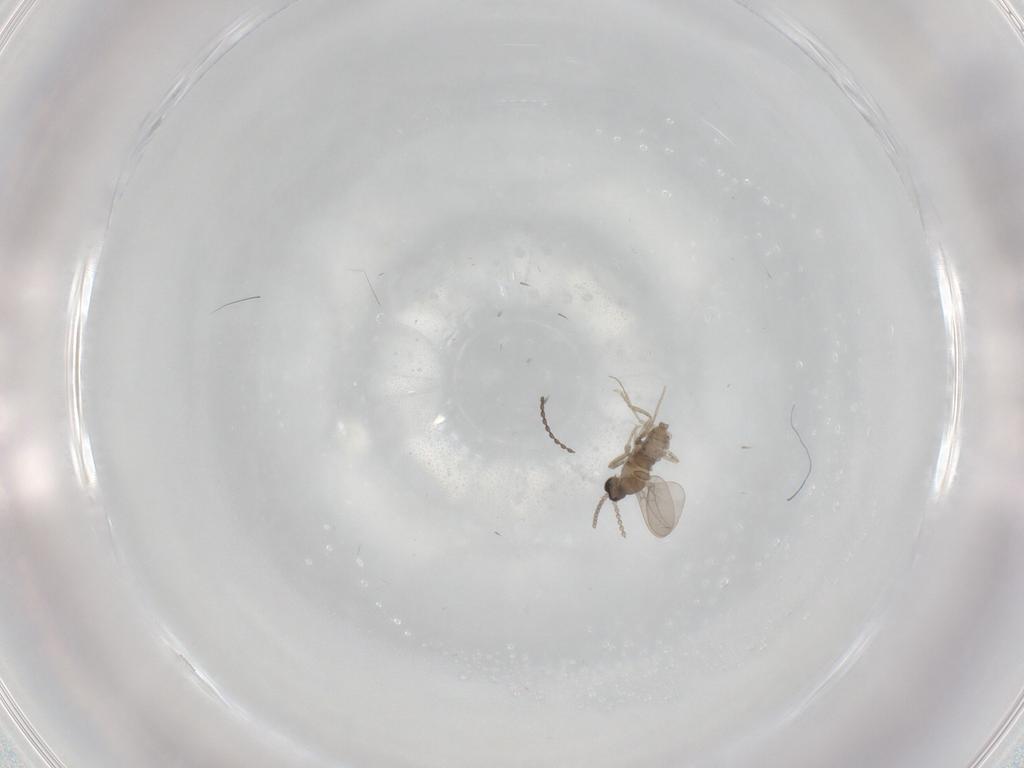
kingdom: Animalia
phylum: Arthropoda
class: Insecta
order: Diptera
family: Cecidomyiidae
